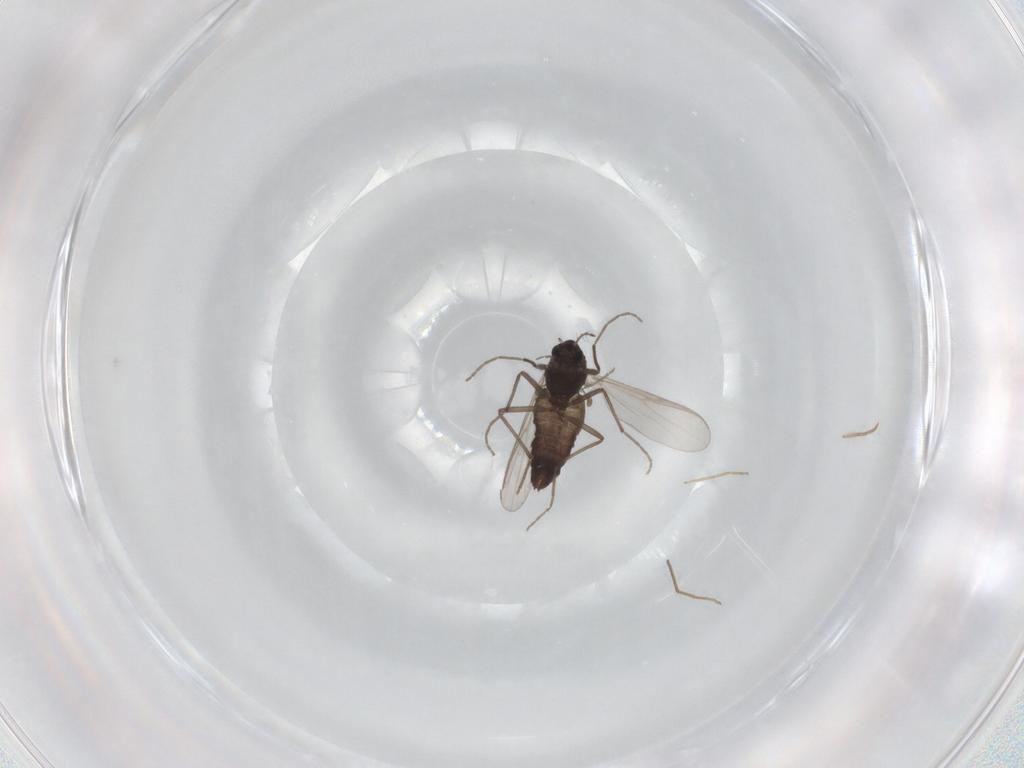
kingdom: Animalia
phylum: Arthropoda
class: Insecta
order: Diptera
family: Chironomidae
